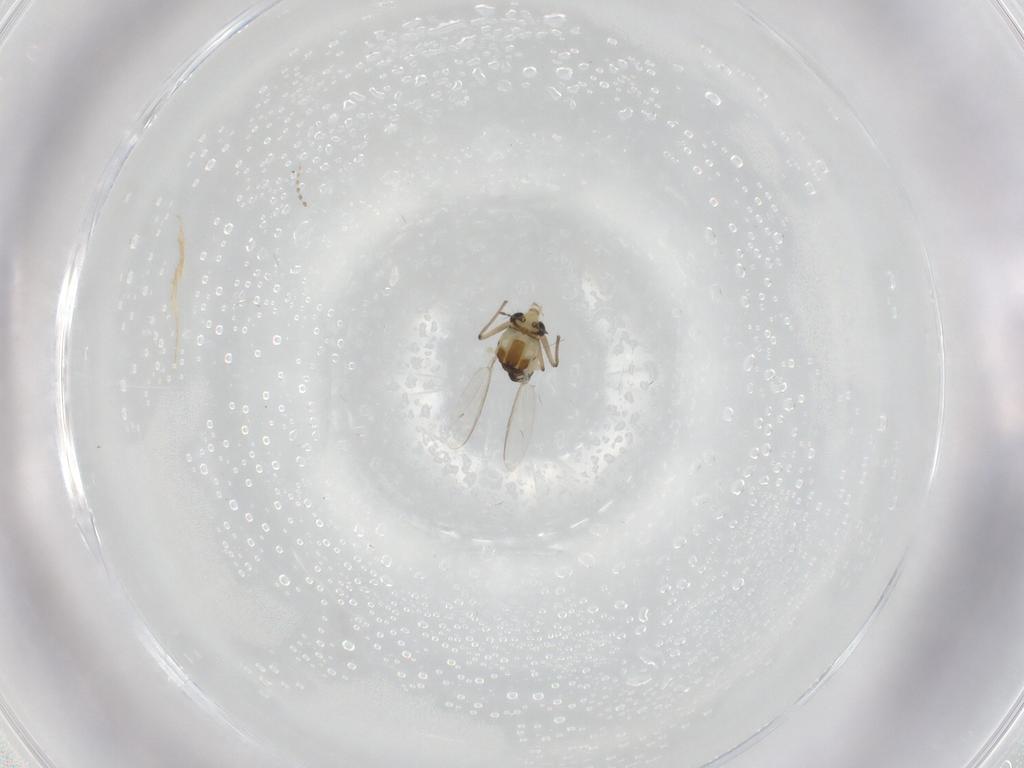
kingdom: Animalia
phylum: Arthropoda
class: Insecta
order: Diptera
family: Chironomidae
